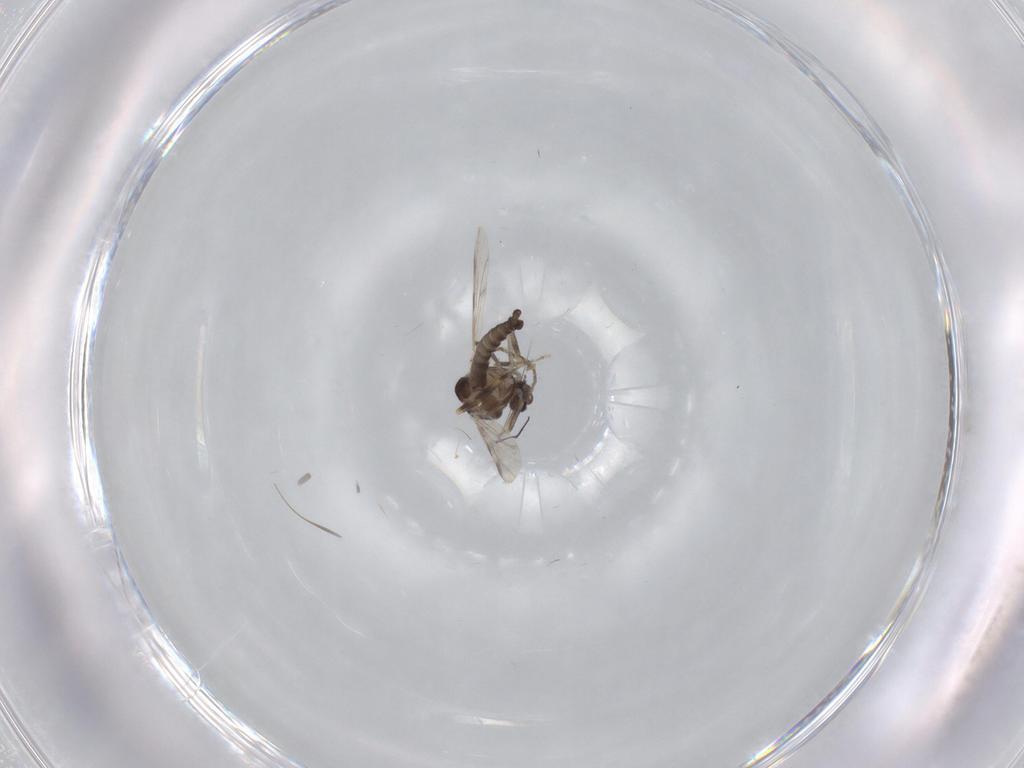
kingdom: Animalia
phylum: Arthropoda
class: Insecta
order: Diptera
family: Ceratopogonidae
